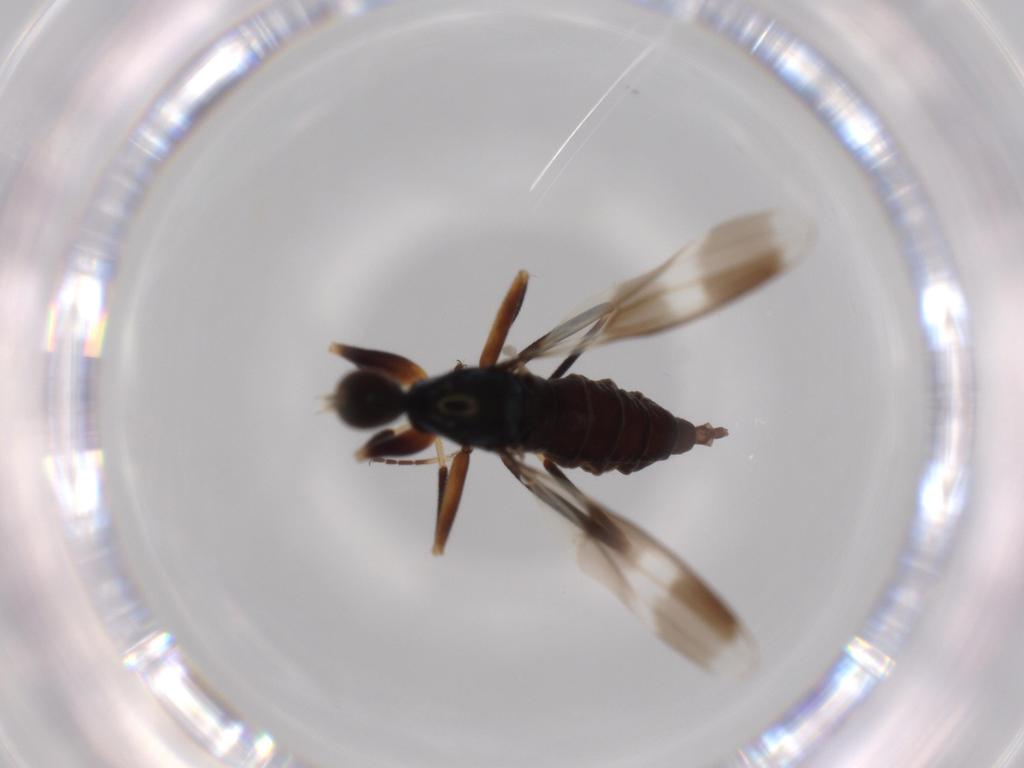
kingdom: Animalia
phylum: Arthropoda
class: Insecta
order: Diptera
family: Hybotidae
